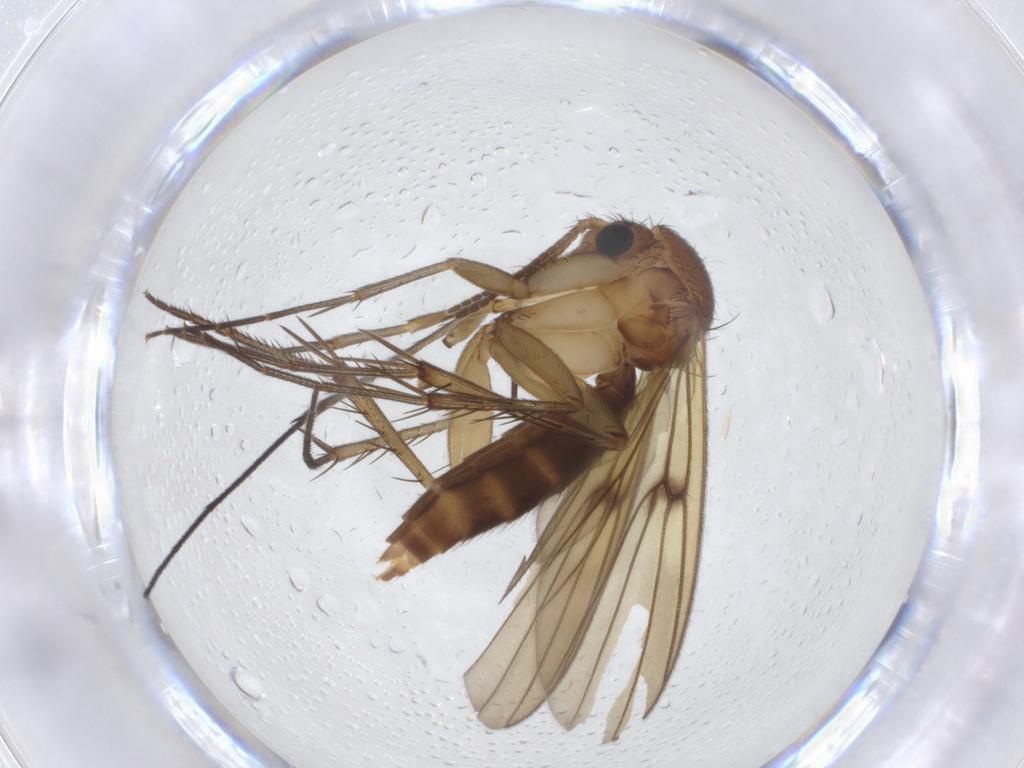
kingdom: Animalia
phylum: Arthropoda
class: Insecta
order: Diptera
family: Mycetophilidae
